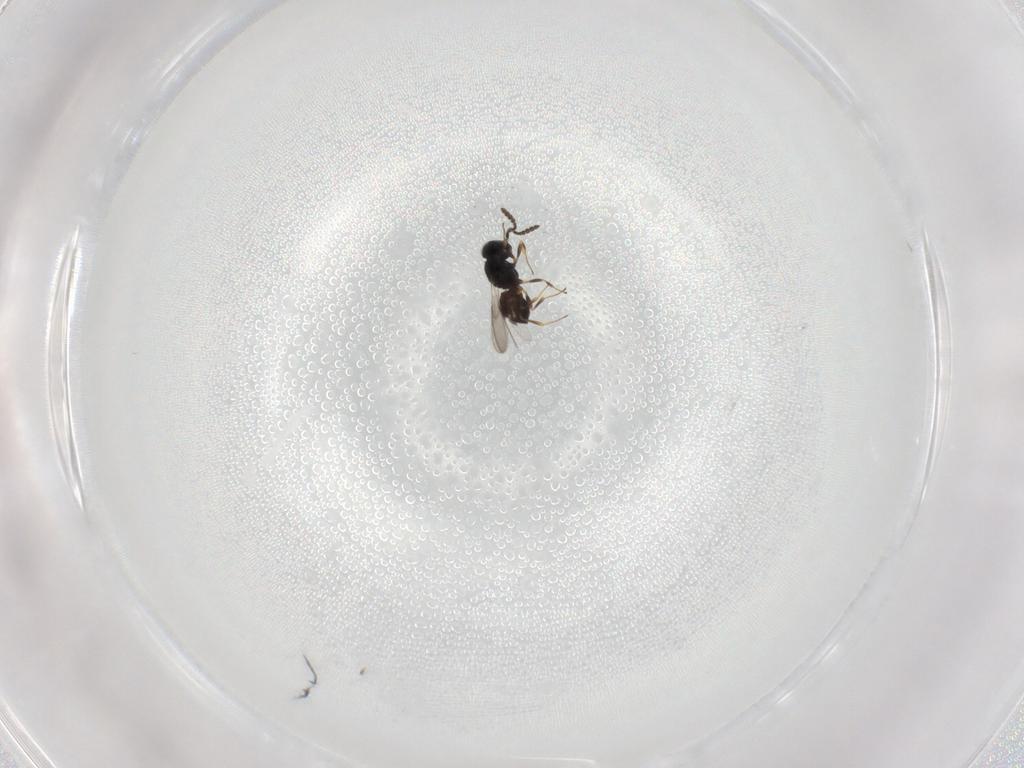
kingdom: Animalia
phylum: Arthropoda
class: Insecta
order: Hymenoptera
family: Scelionidae
